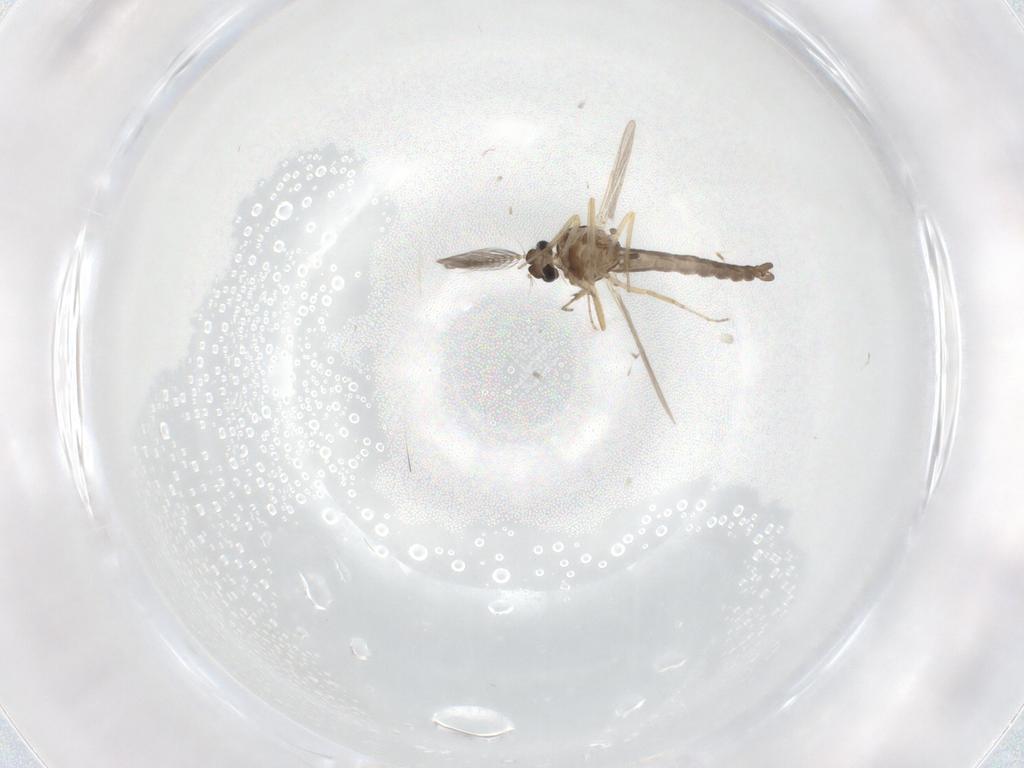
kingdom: Animalia
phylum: Arthropoda
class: Insecta
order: Diptera
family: Ceratopogonidae
